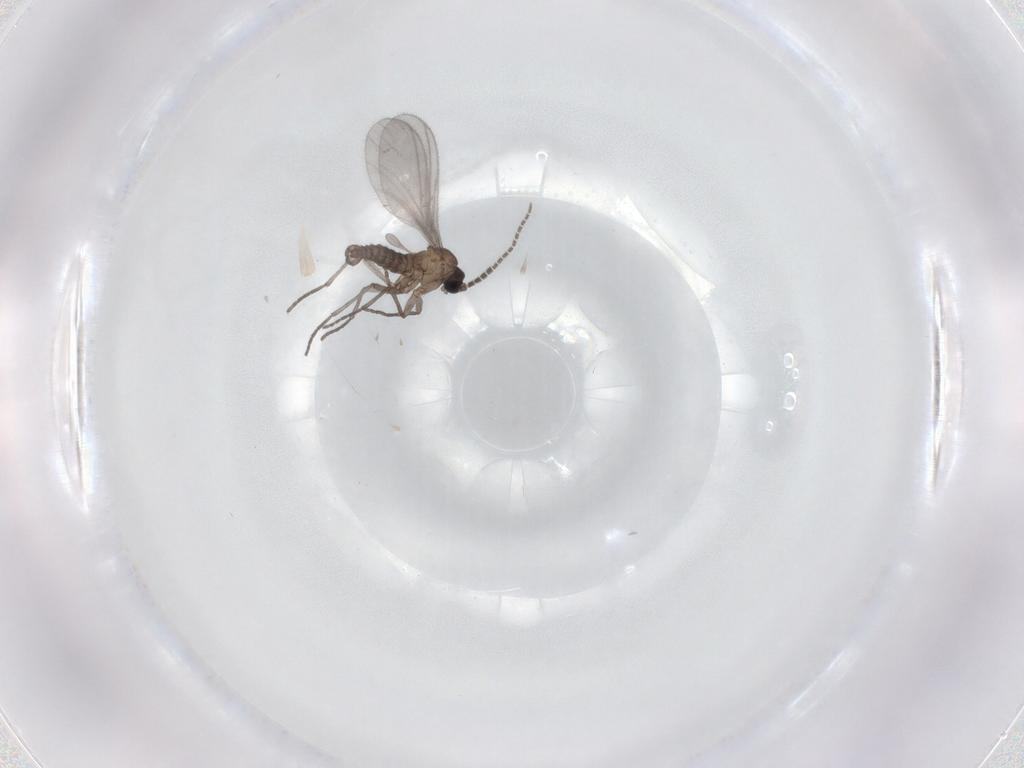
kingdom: Animalia
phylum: Arthropoda
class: Insecta
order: Diptera
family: Sciaridae
